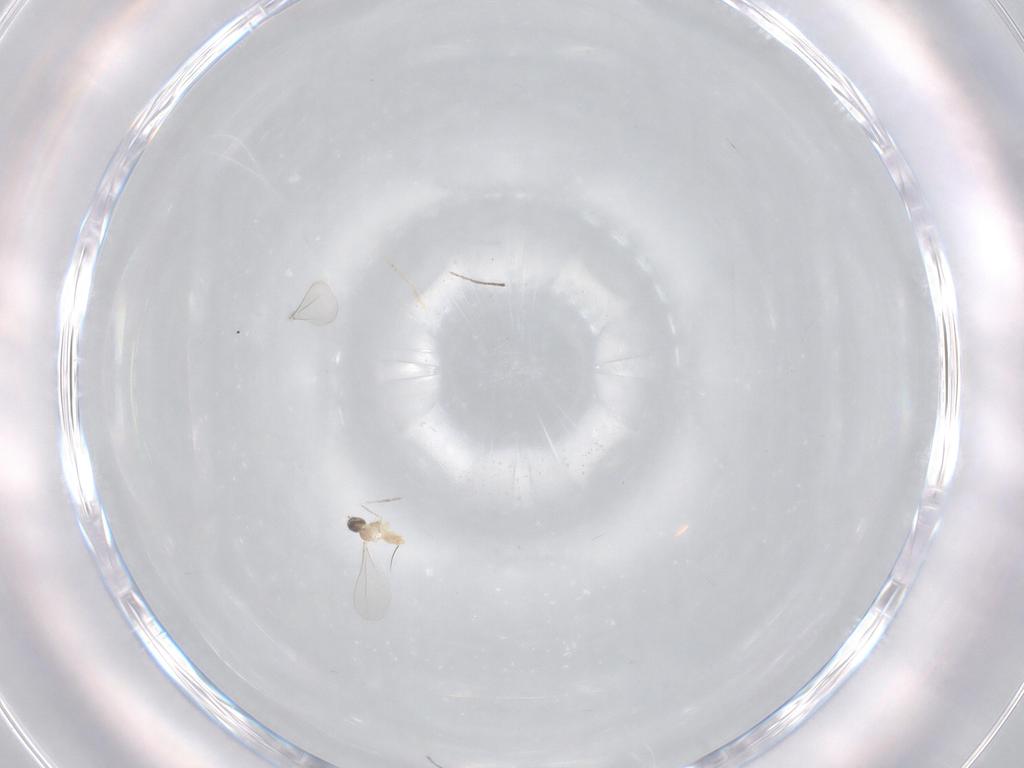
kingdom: Animalia
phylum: Arthropoda
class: Insecta
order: Diptera
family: Cecidomyiidae
